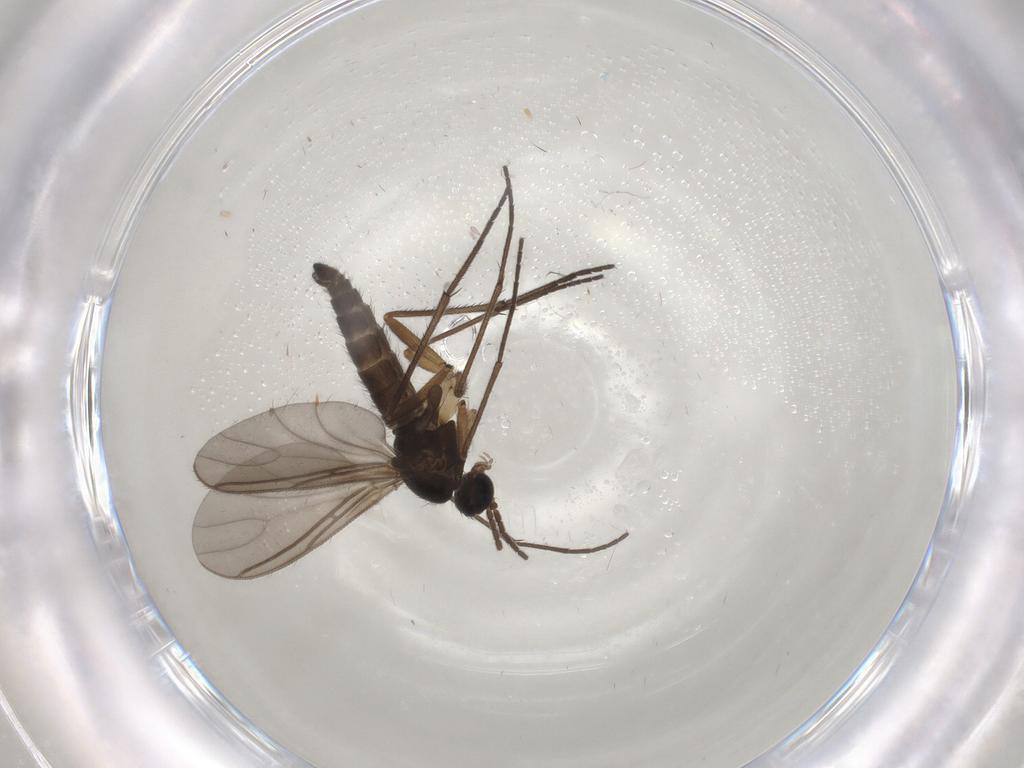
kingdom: Animalia
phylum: Arthropoda
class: Insecta
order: Diptera
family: Sciaridae
